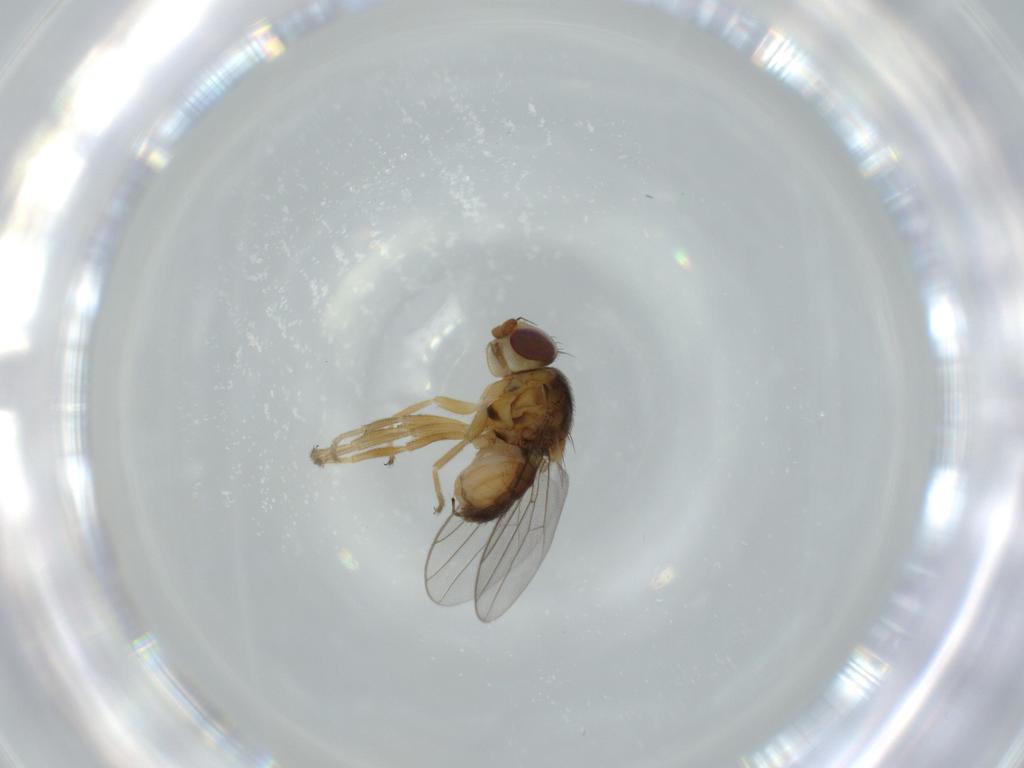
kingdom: Animalia
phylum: Arthropoda
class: Insecta
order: Diptera
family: Chloropidae
